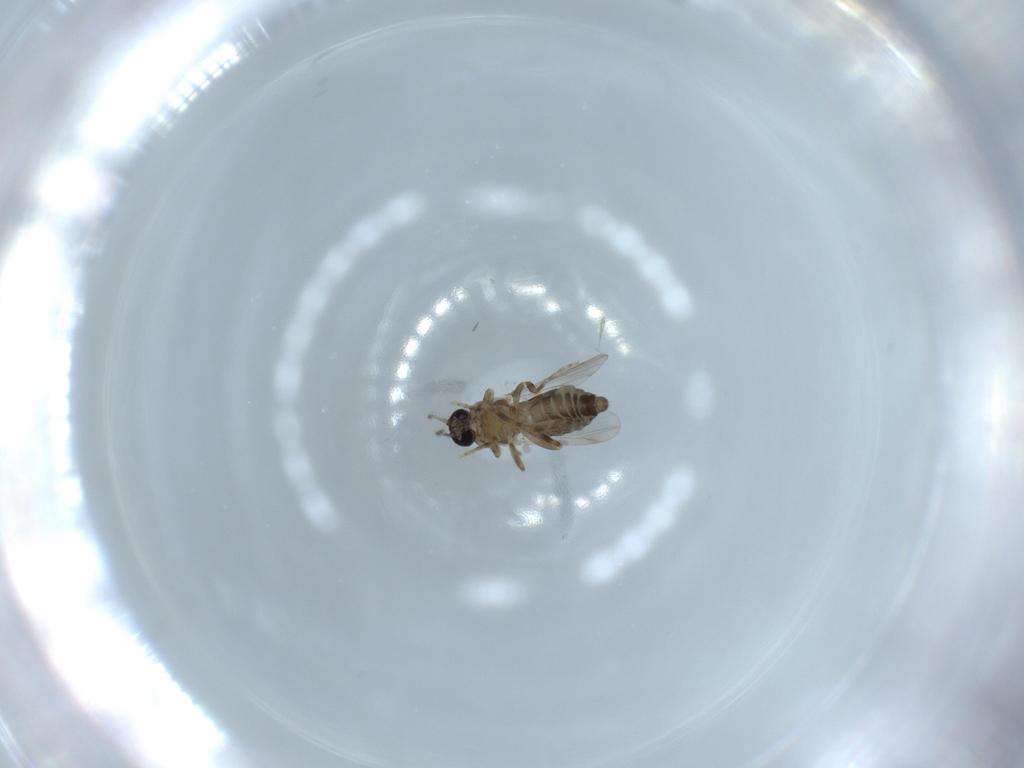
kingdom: Animalia
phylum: Arthropoda
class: Insecta
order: Diptera
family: Ceratopogonidae
